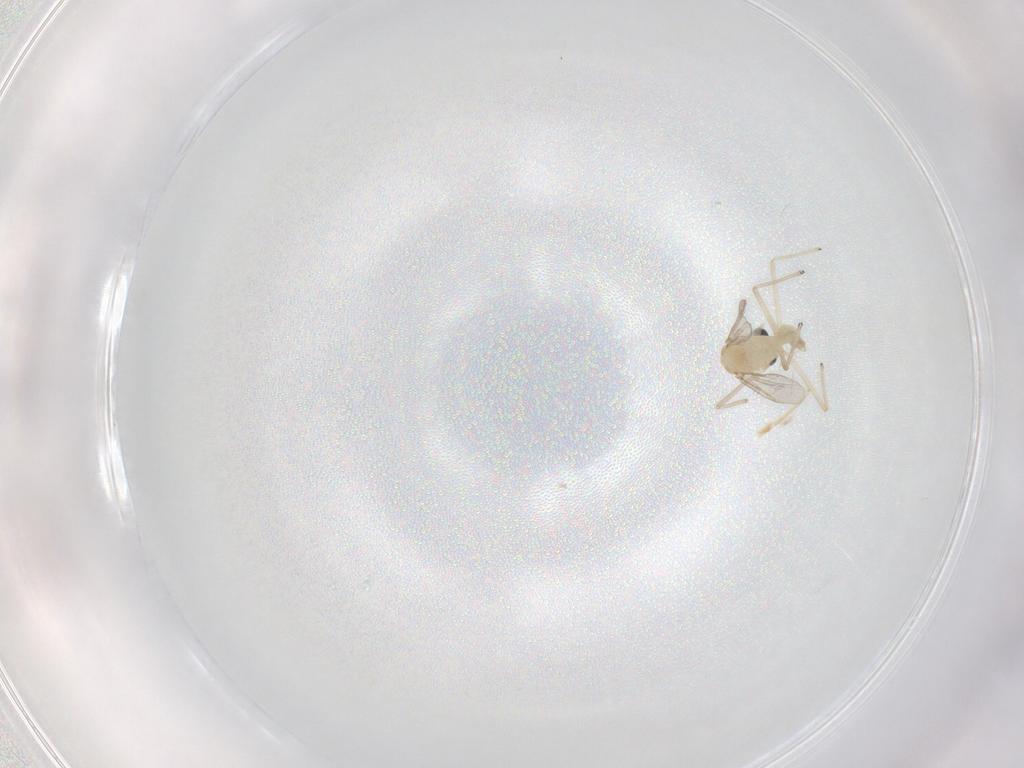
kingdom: Animalia
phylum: Arthropoda
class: Insecta
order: Diptera
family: Chironomidae
